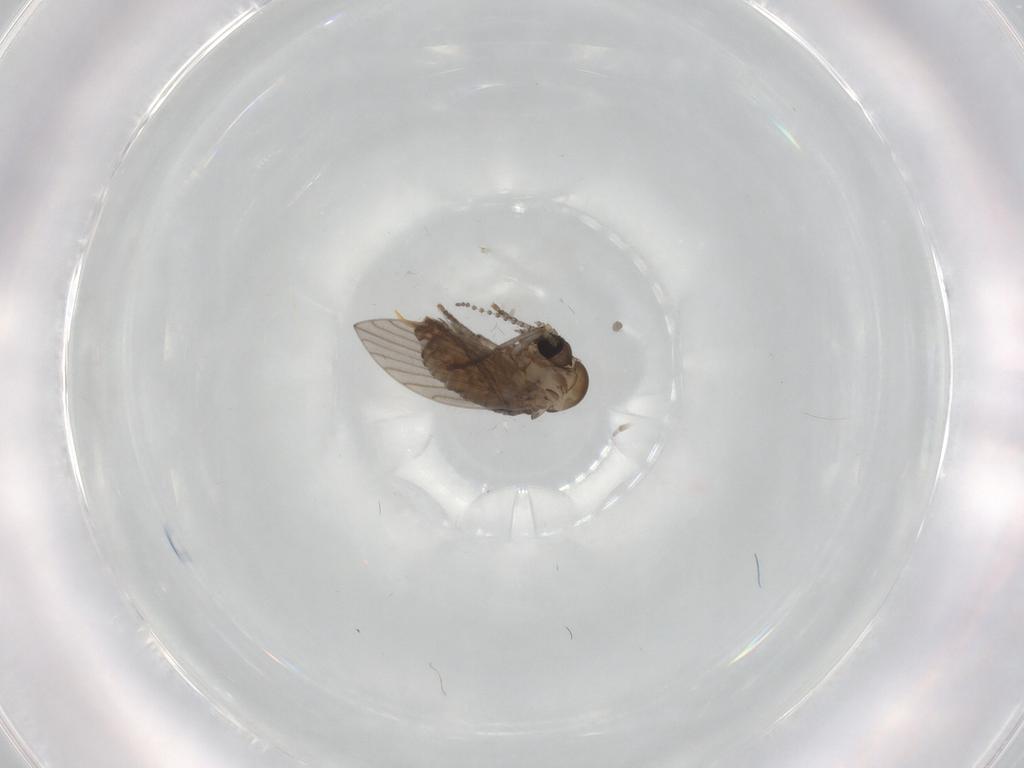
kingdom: Animalia
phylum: Arthropoda
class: Insecta
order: Diptera
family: Psychodidae
